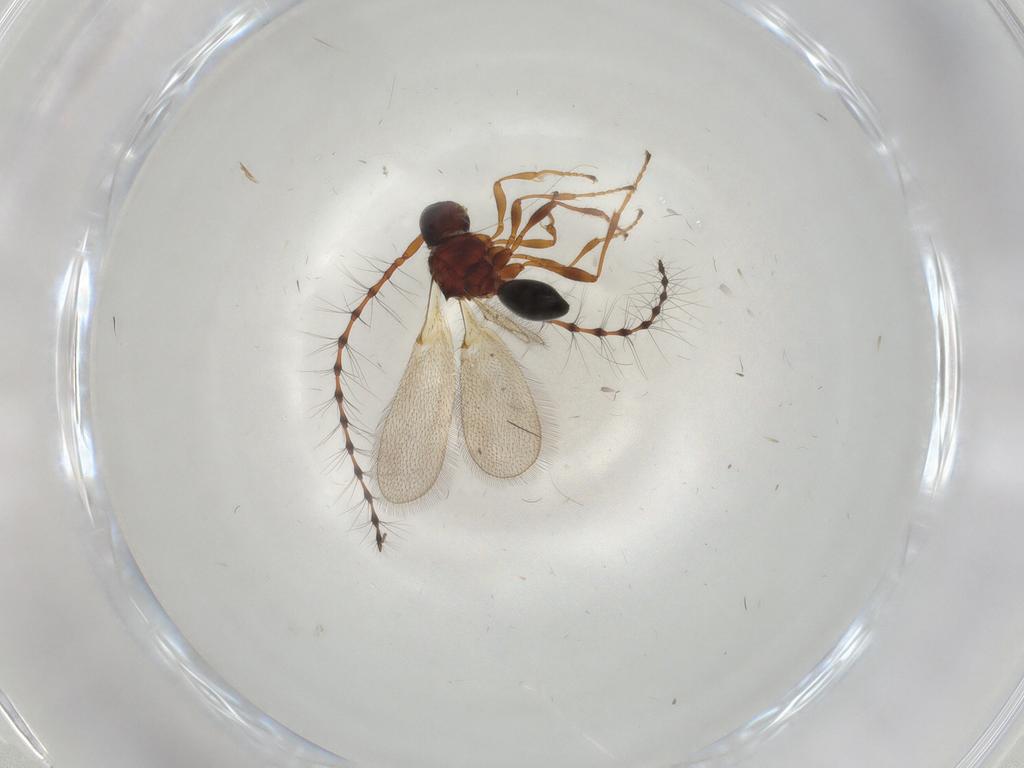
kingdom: Animalia
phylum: Arthropoda
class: Insecta
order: Hymenoptera
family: Diapriidae
